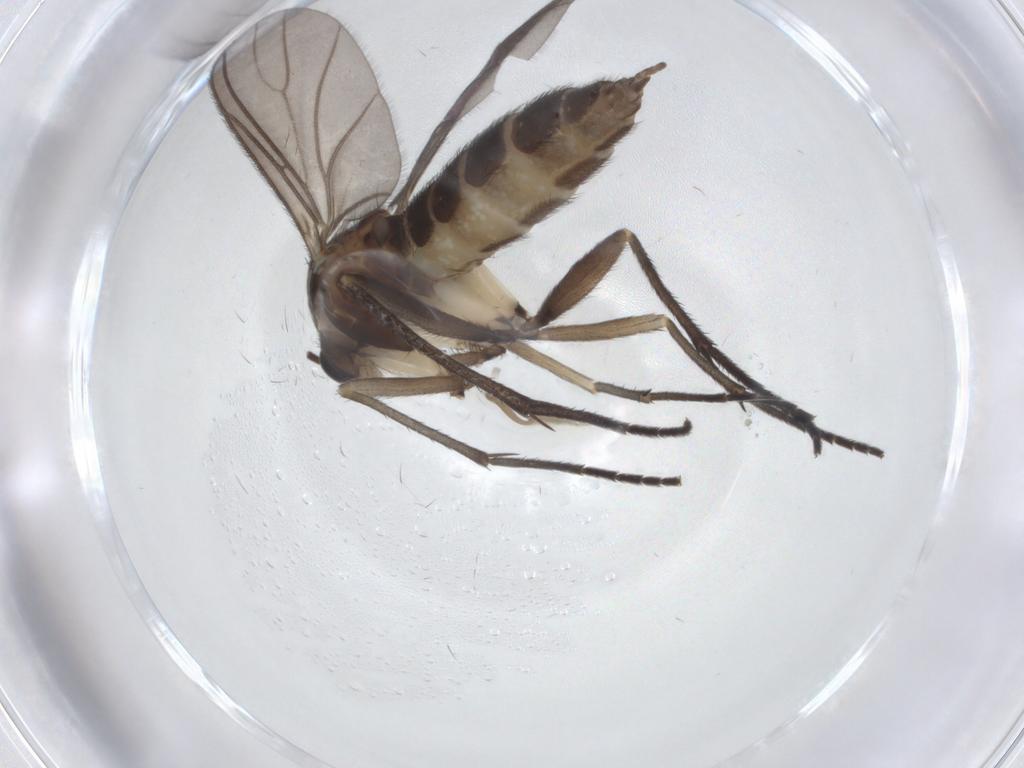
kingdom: Animalia
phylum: Arthropoda
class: Insecta
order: Diptera
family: Sciaridae
